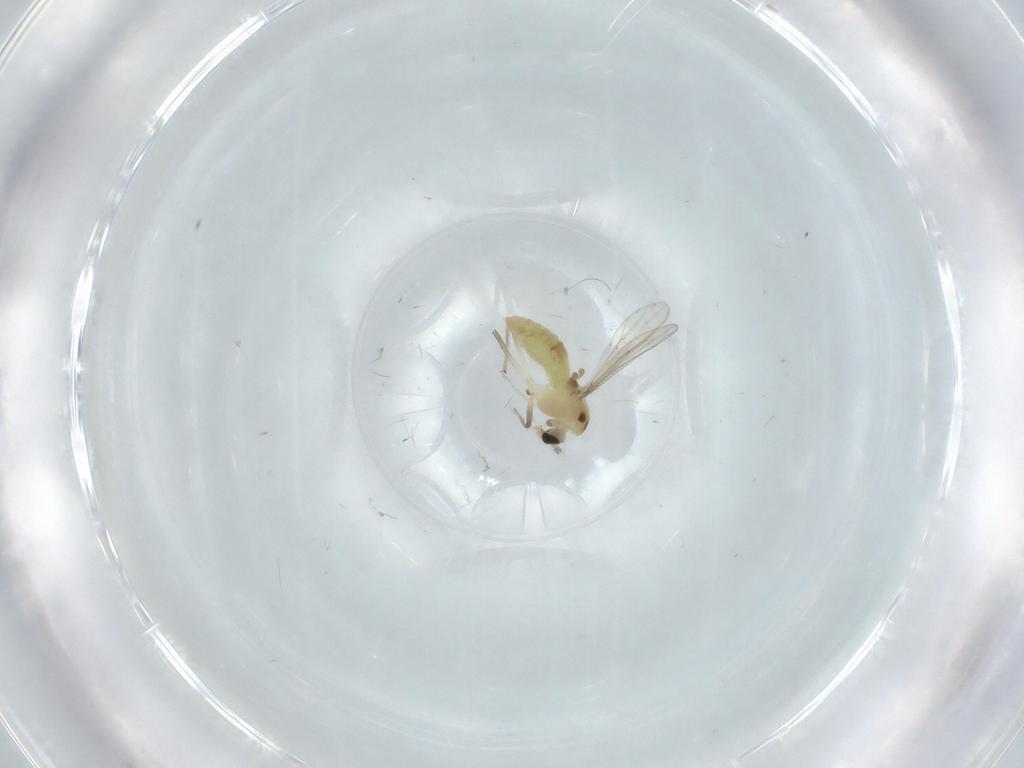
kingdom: Animalia
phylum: Arthropoda
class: Insecta
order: Diptera
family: Chironomidae
